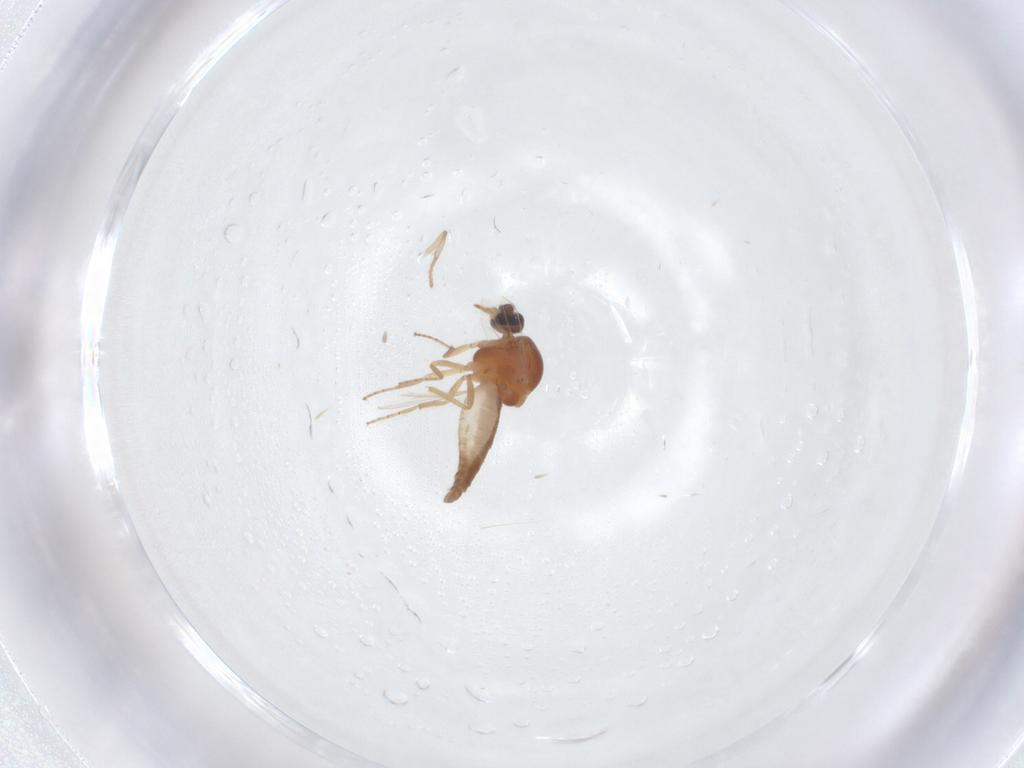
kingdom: Animalia
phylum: Arthropoda
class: Insecta
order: Diptera
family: Ceratopogonidae
